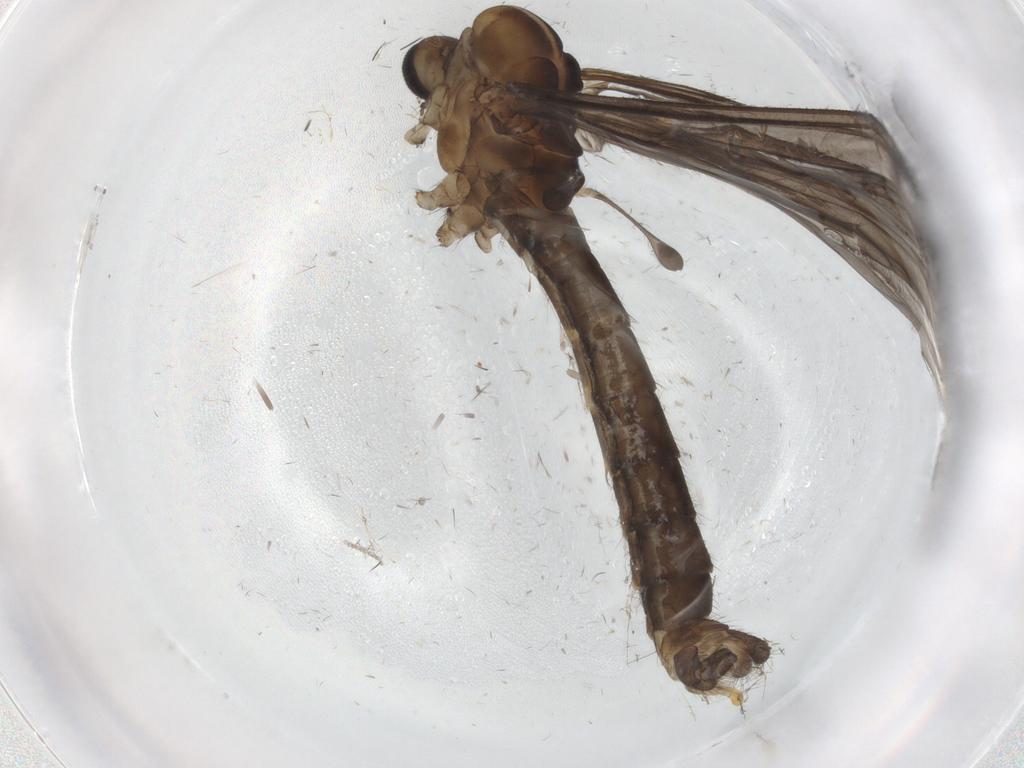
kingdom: Animalia
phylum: Arthropoda
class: Insecta
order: Diptera
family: Limoniidae
